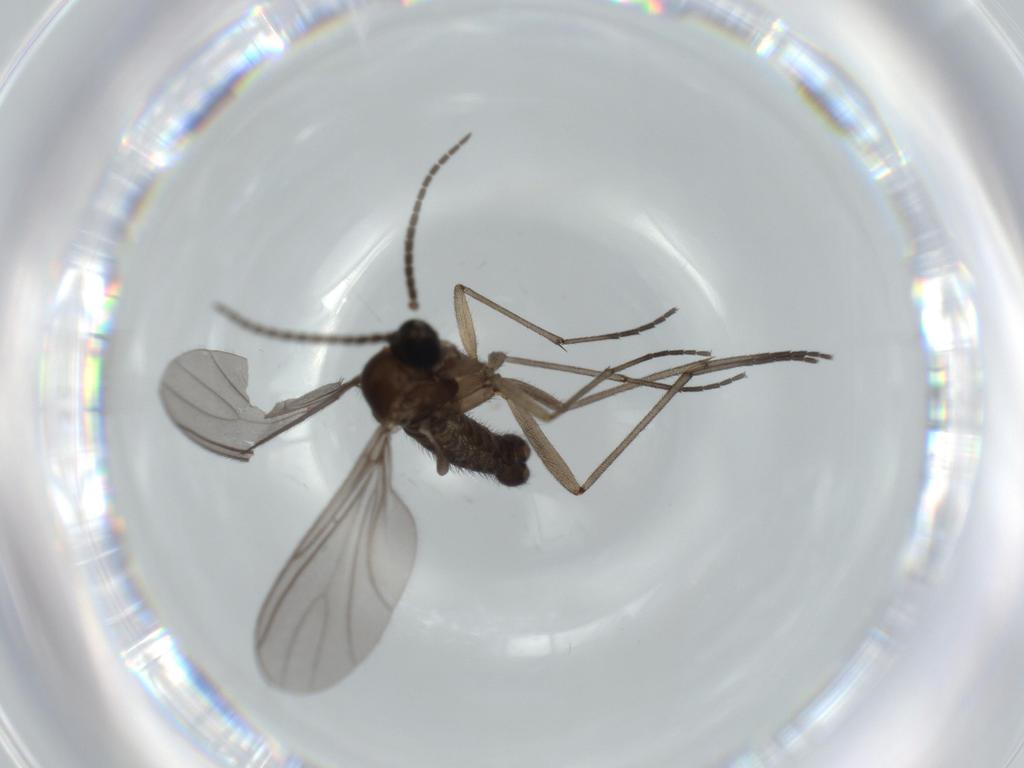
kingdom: Animalia
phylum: Arthropoda
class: Insecta
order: Diptera
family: Sciaridae
